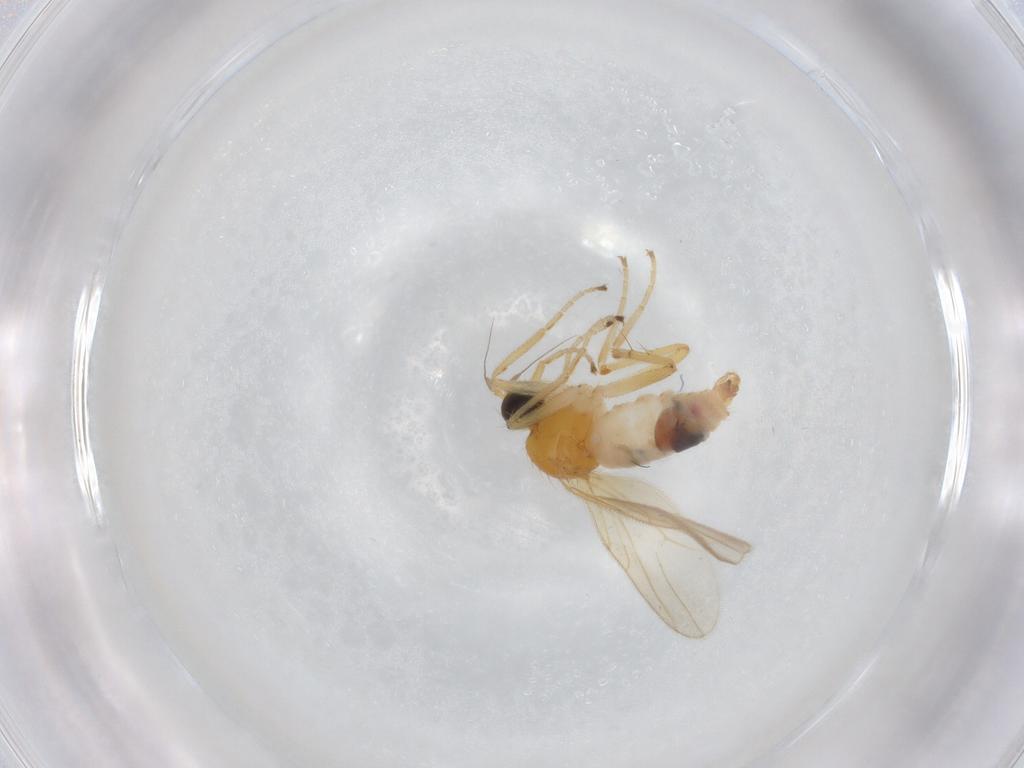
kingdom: Animalia
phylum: Arthropoda
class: Insecta
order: Diptera
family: Hybotidae
